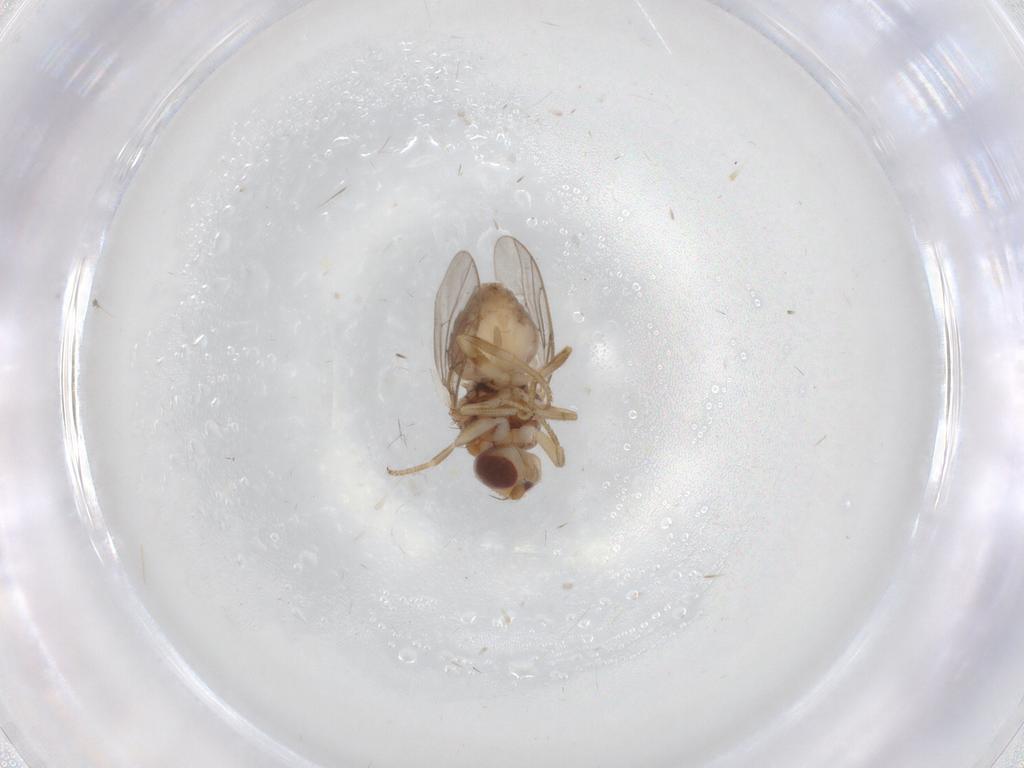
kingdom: Animalia
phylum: Arthropoda
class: Insecta
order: Diptera
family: Chloropidae
